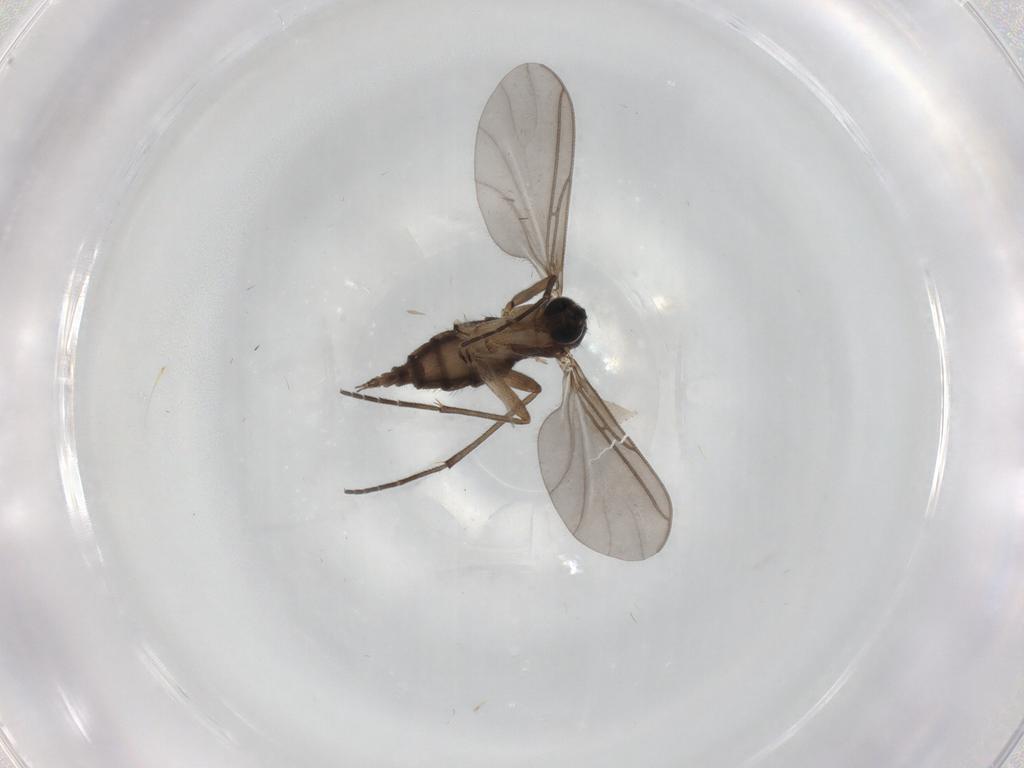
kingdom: Animalia
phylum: Arthropoda
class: Insecta
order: Diptera
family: Sciaridae
